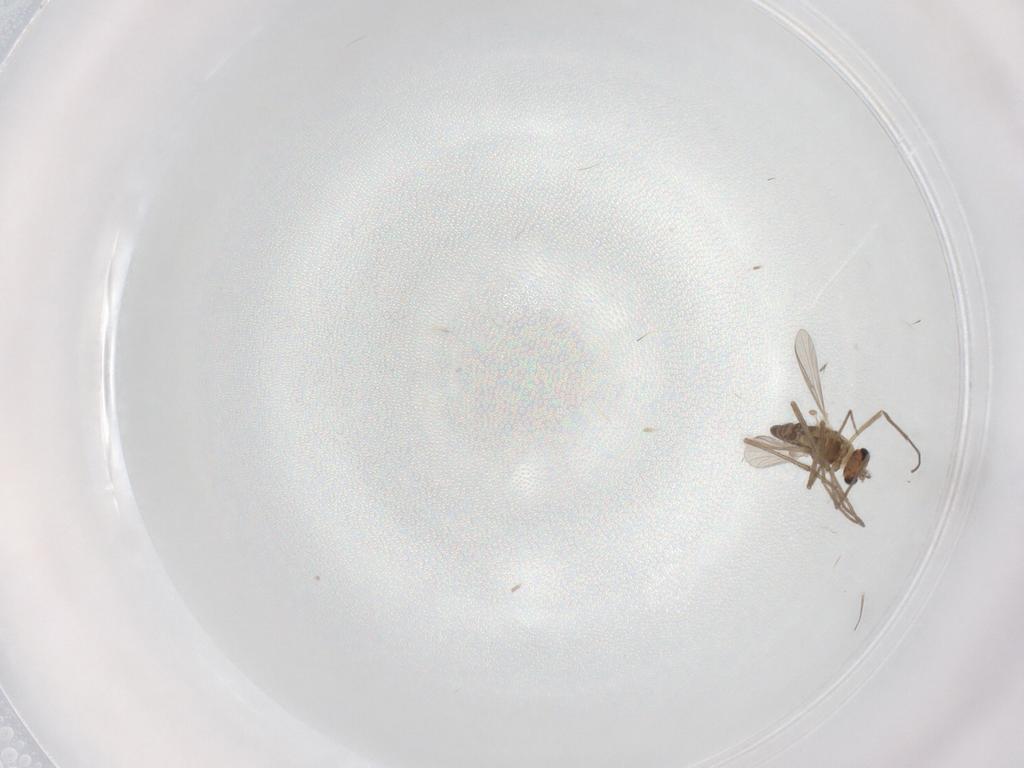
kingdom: Animalia
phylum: Arthropoda
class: Insecta
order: Diptera
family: Chironomidae
